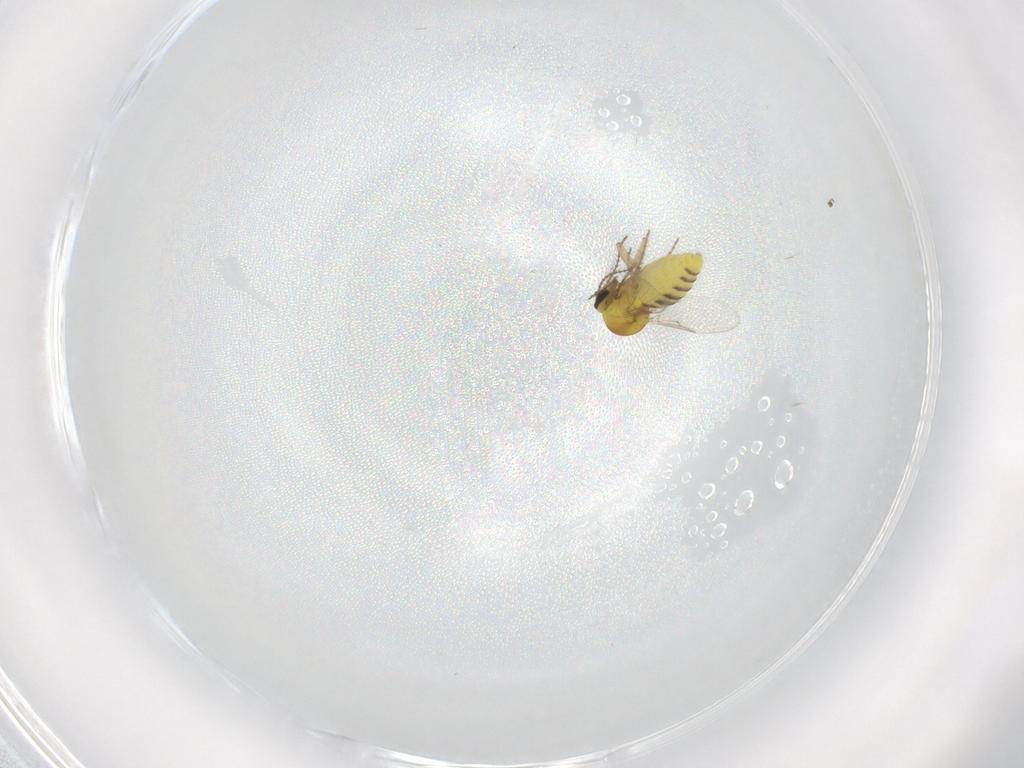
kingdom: Animalia
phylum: Arthropoda
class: Insecta
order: Diptera
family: Ceratopogonidae
